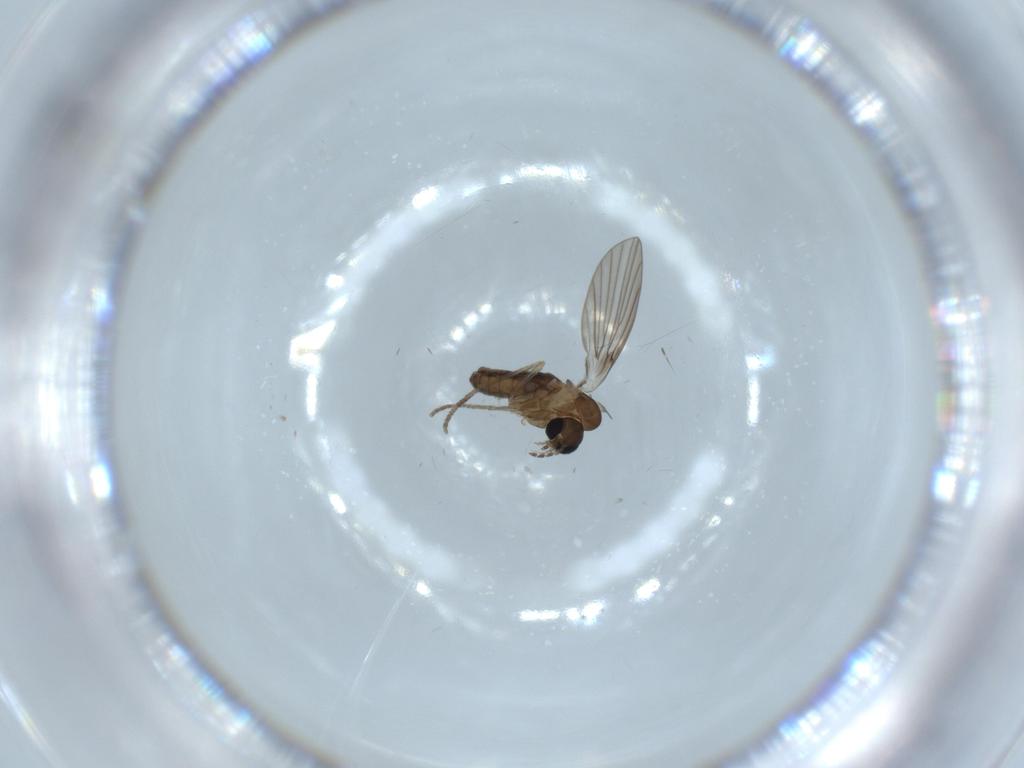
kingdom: Animalia
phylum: Arthropoda
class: Insecta
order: Diptera
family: Psychodidae
